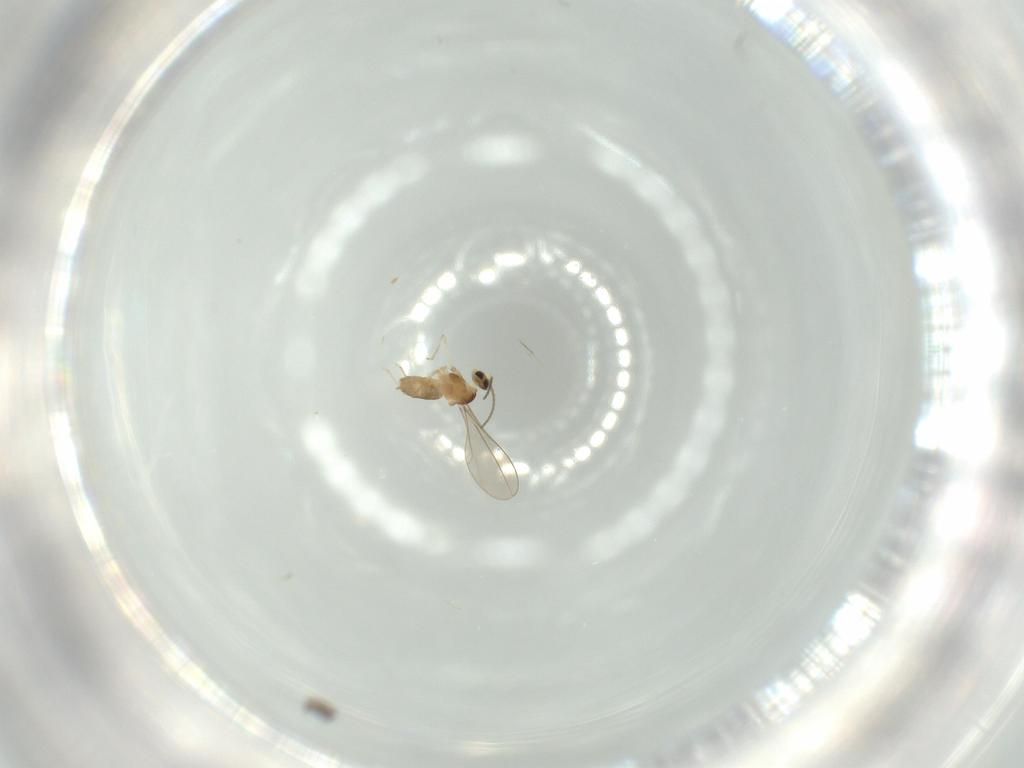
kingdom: Animalia
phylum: Arthropoda
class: Insecta
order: Diptera
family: Cecidomyiidae
